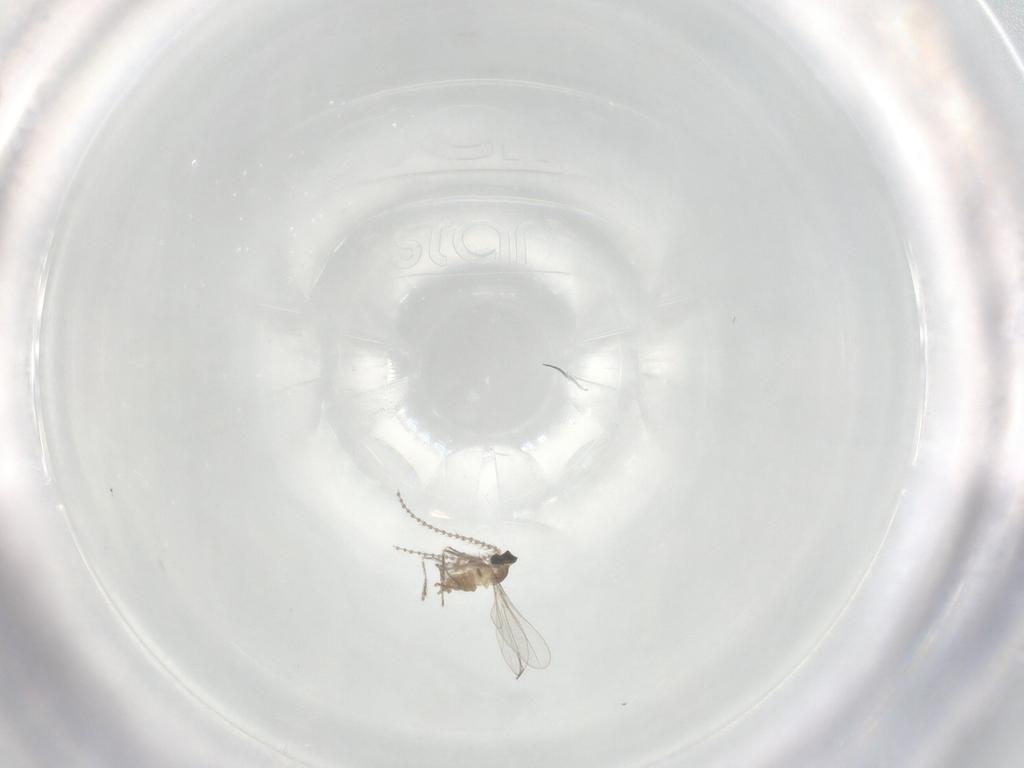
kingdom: Animalia
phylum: Arthropoda
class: Insecta
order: Diptera
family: Cecidomyiidae
